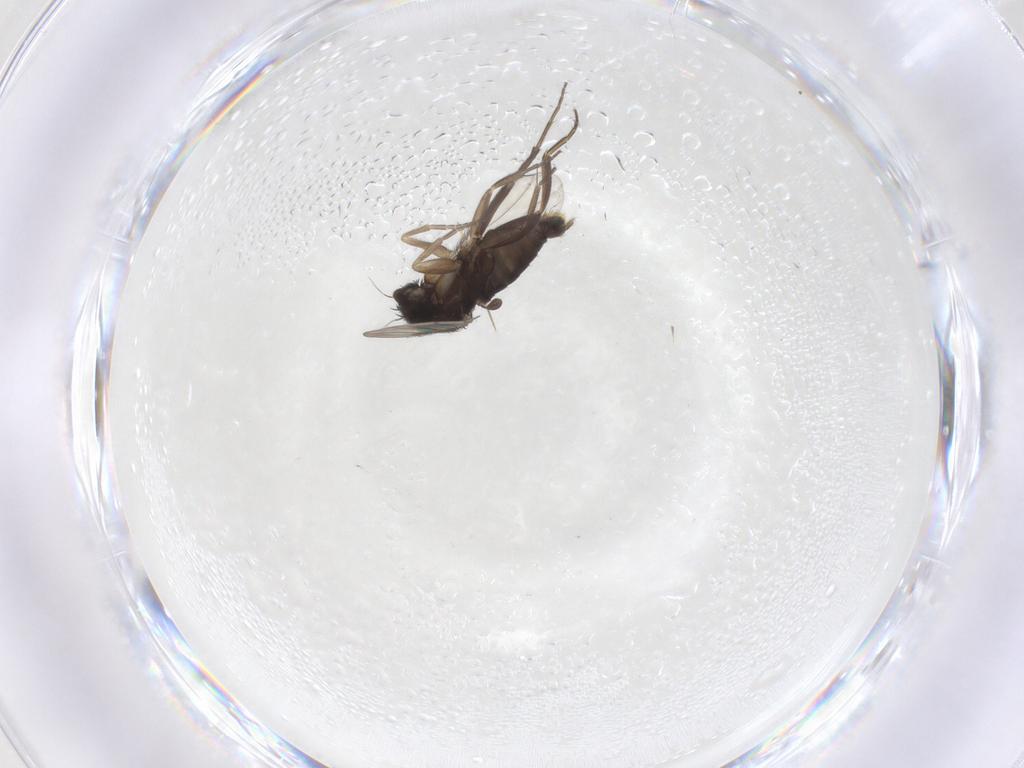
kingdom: Animalia
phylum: Arthropoda
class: Insecta
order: Diptera
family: Phoridae
